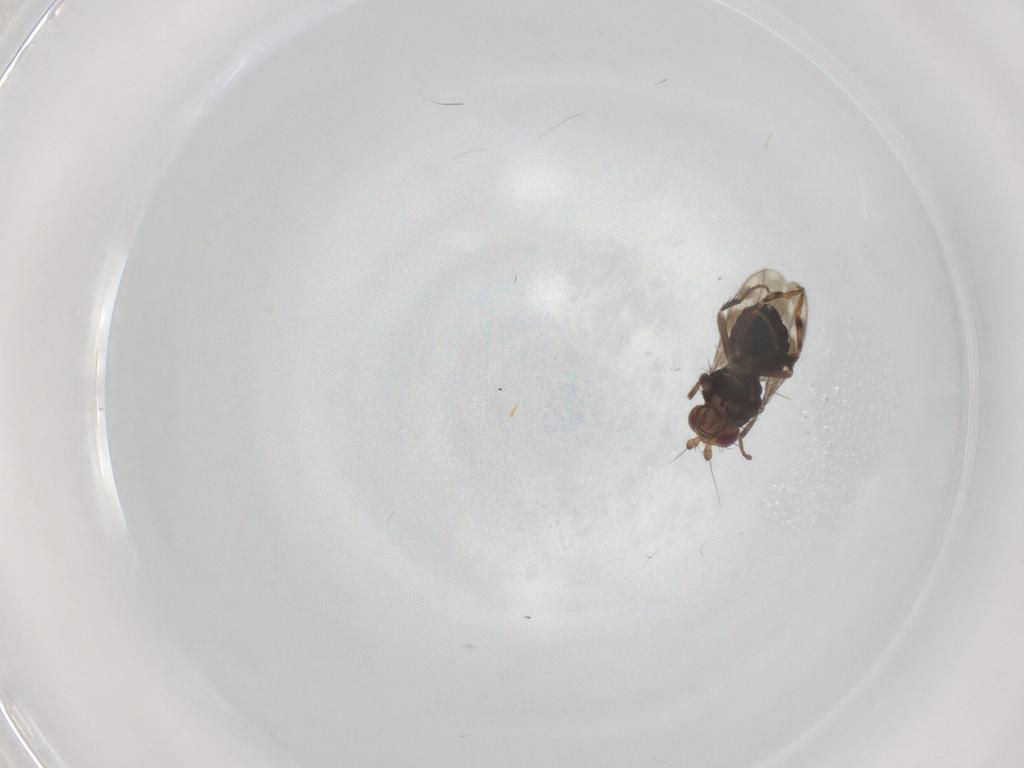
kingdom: Animalia
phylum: Arthropoda
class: Insecta
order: Diptera
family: Sphaeroceridae
